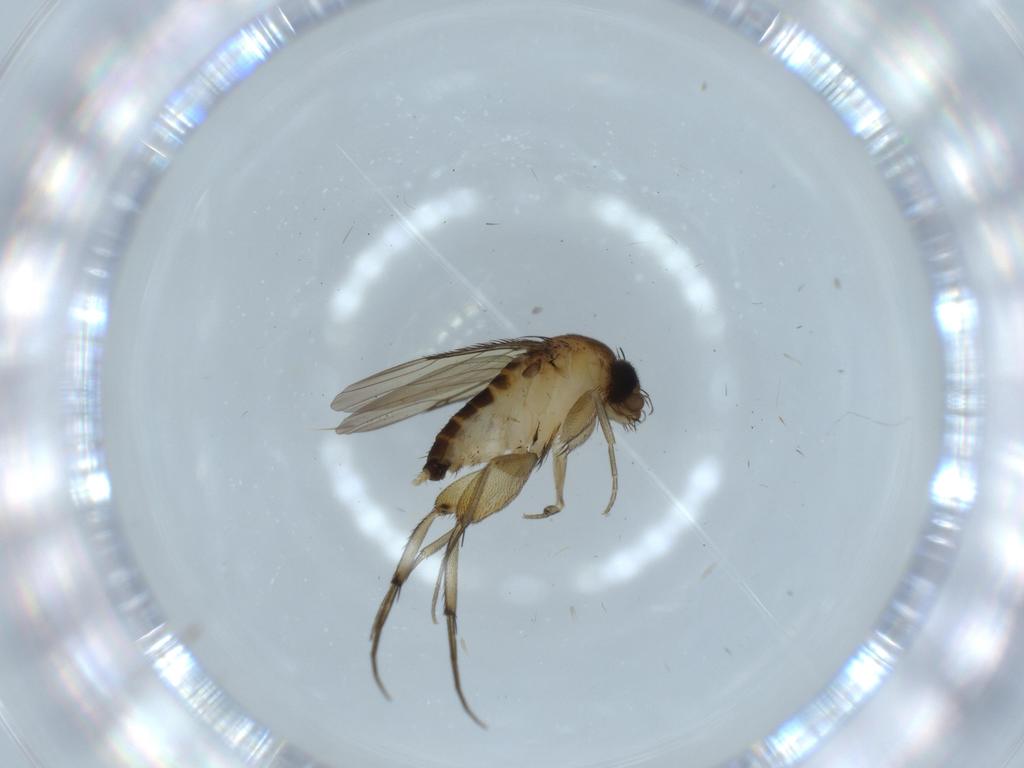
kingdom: Animalia
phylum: Arthropoda
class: Insecta
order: Diptera
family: Phoridae
